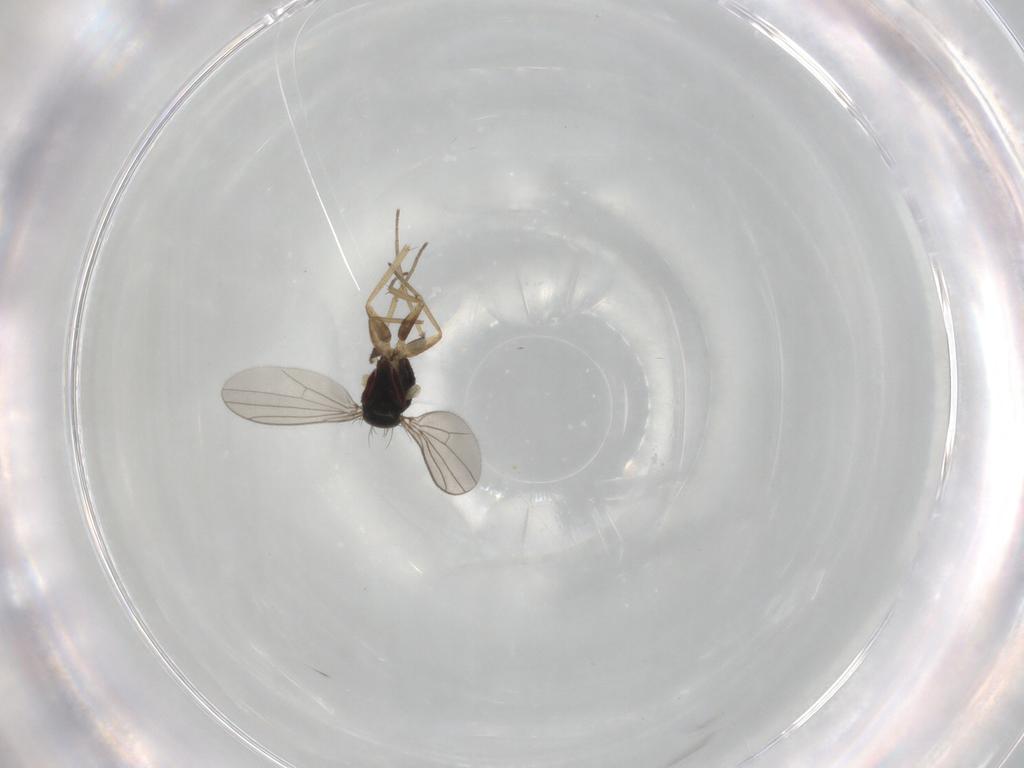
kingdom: Animalia
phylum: Arthropoda
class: Insecta
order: Diptera
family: Dolichopodidae
